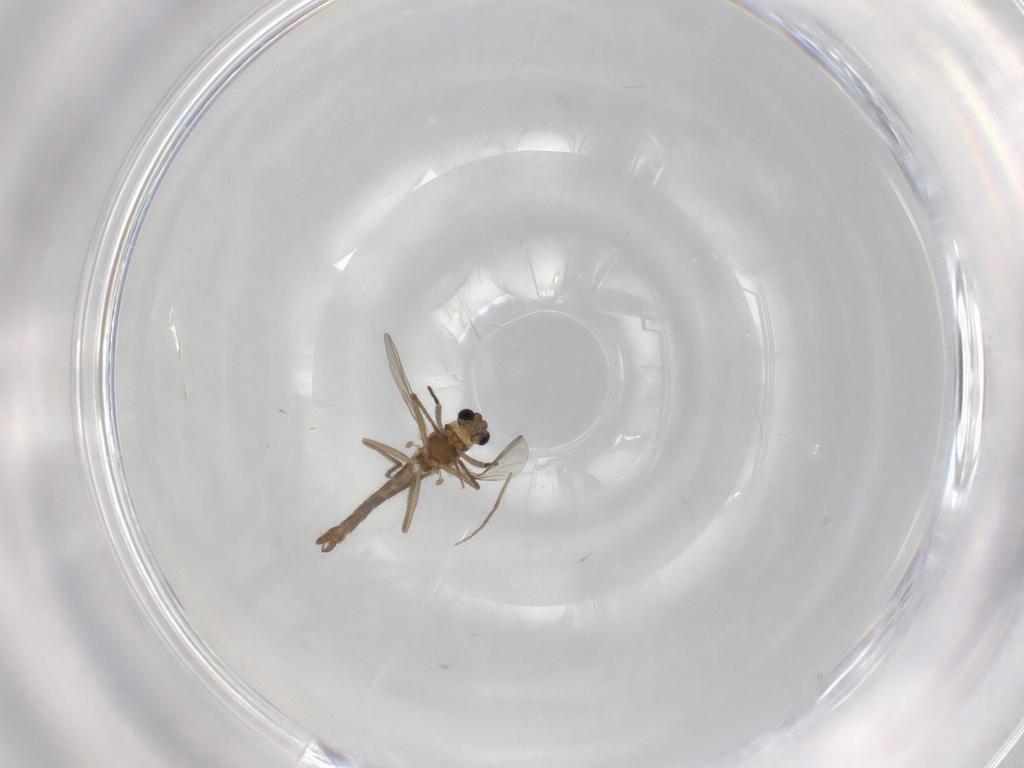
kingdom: Animalia
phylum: Arthropoda
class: Insecta
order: Diptera
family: Chironomidae
